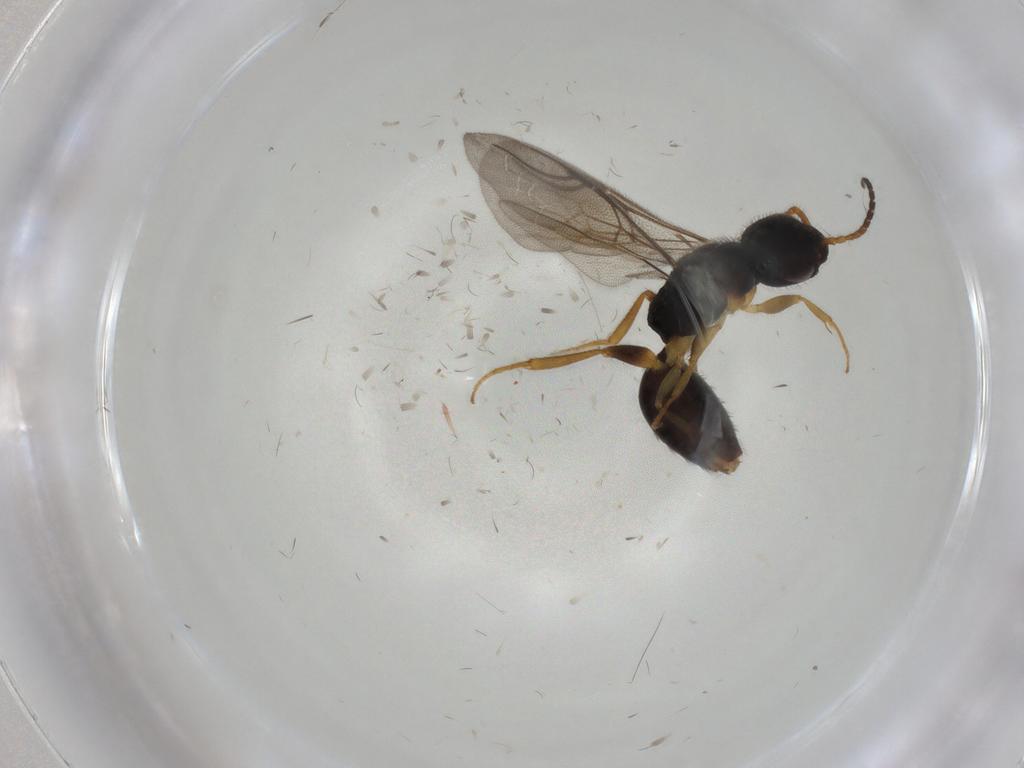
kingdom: Animalia
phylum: Arthropoda
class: Insecta
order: Hymenoptera
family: Bethylidae
